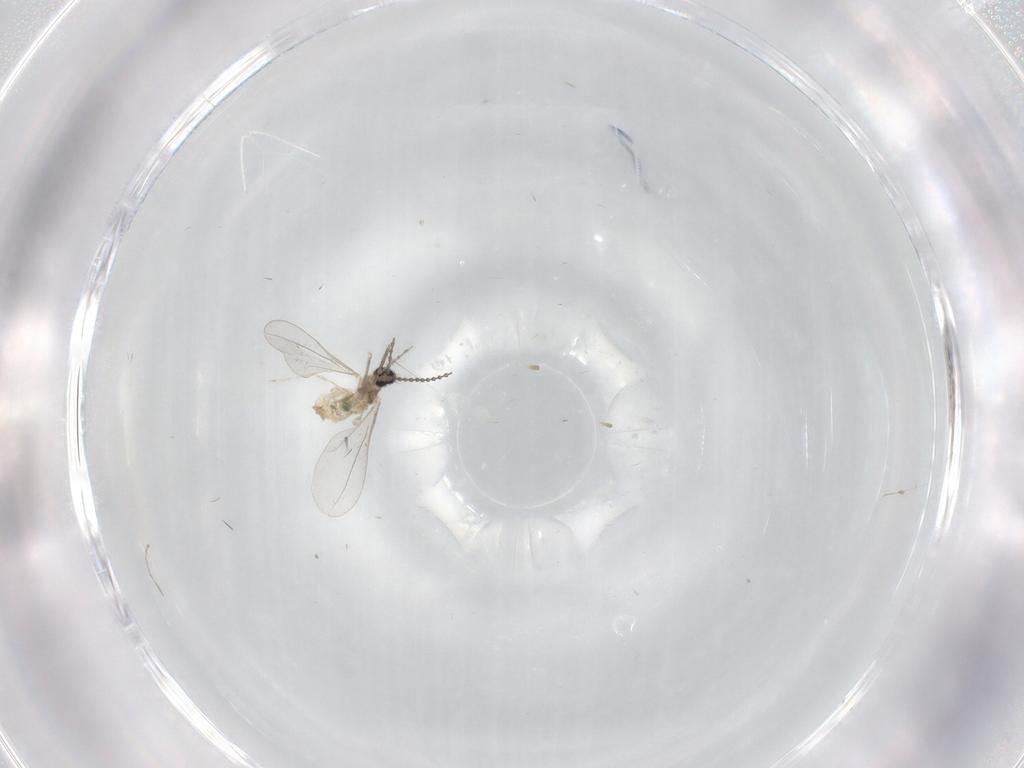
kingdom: Animalia
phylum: Arthropoda
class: Insecta
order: Diptera
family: Cecidomyiidae
